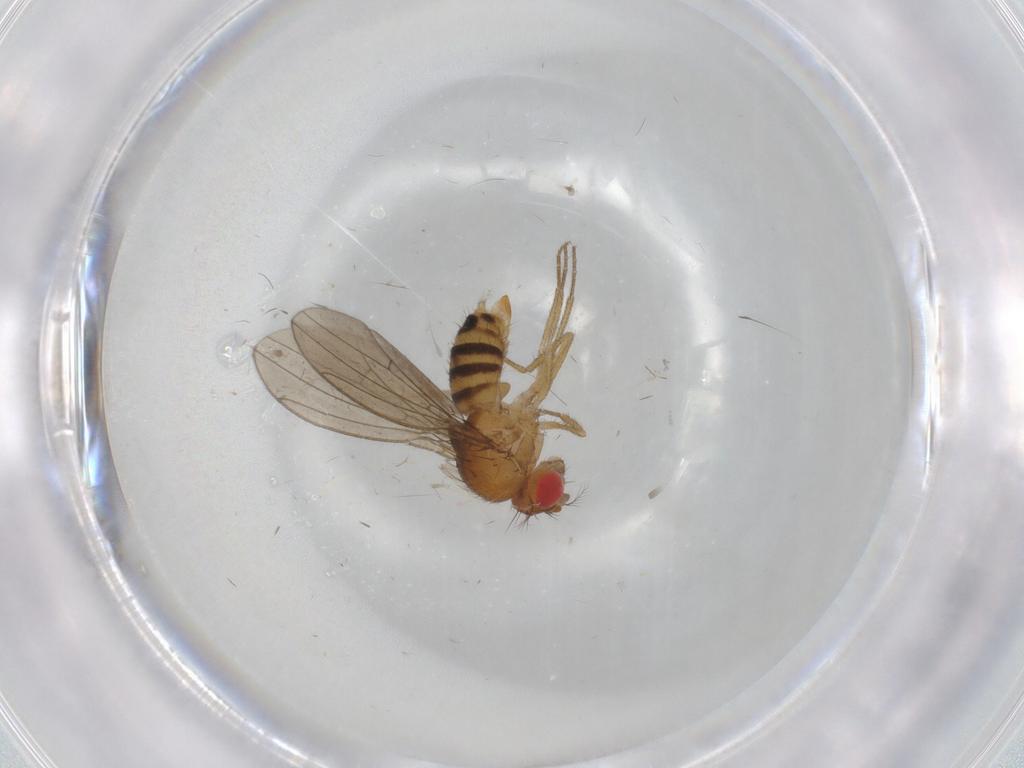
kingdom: Animalia
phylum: Arthropoda
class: Insecta
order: Diptera
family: Drosophilidae
